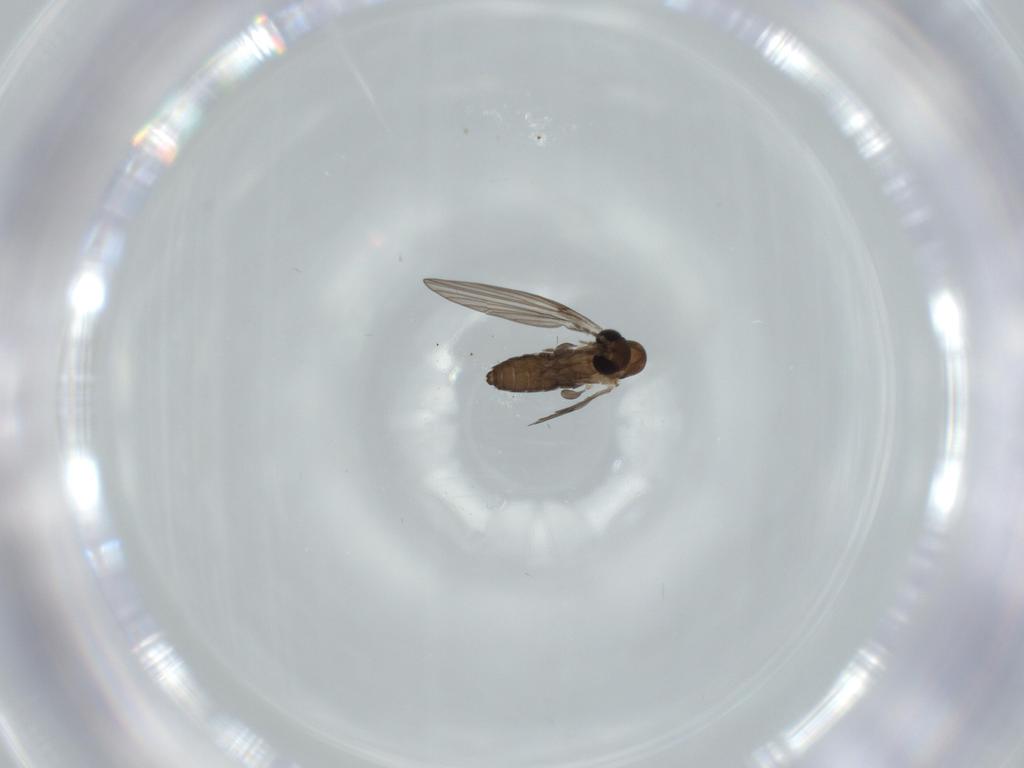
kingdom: Animalia
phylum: Arthropoda
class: Insecta
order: Diptera
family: Psychodidae
